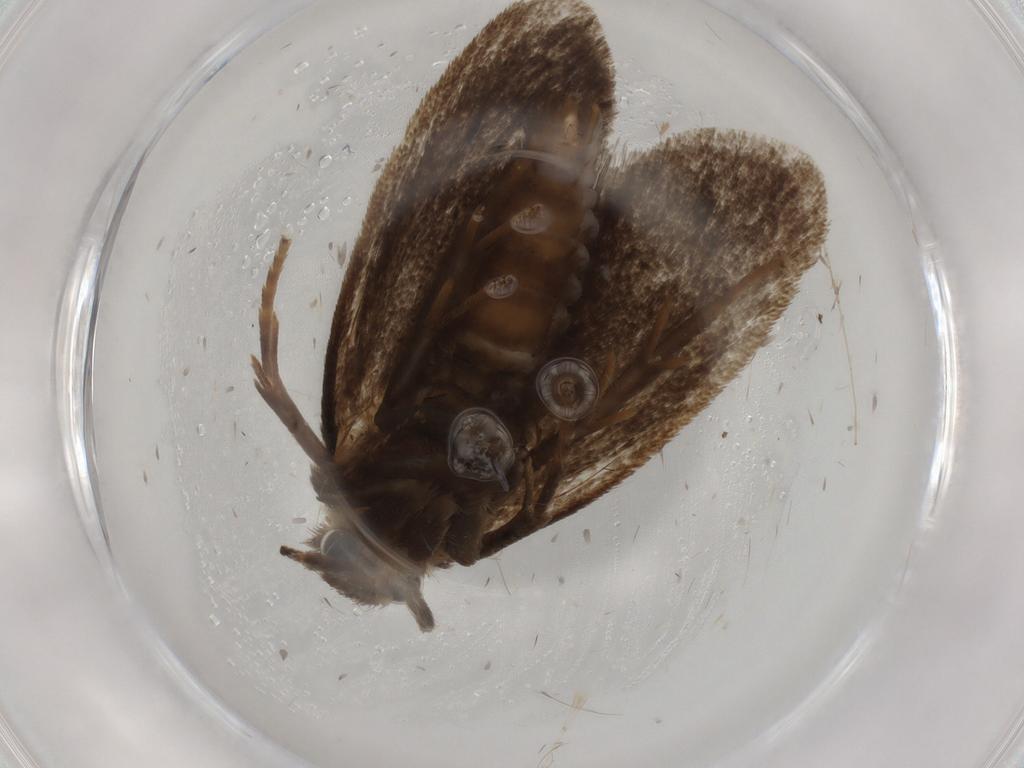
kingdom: Animalia
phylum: Arthropoda
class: Insecta
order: Lepidoptera
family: Tineidae
